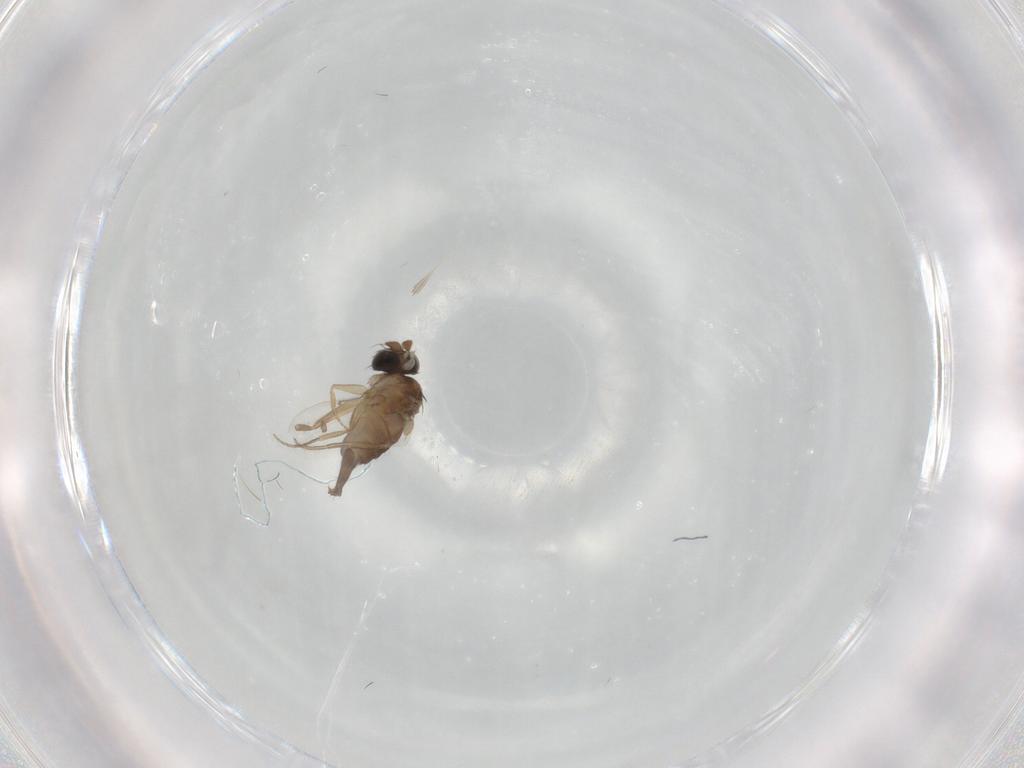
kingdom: Animalia
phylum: Arthropoda
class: Insecta
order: Diptera
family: Phoridae
